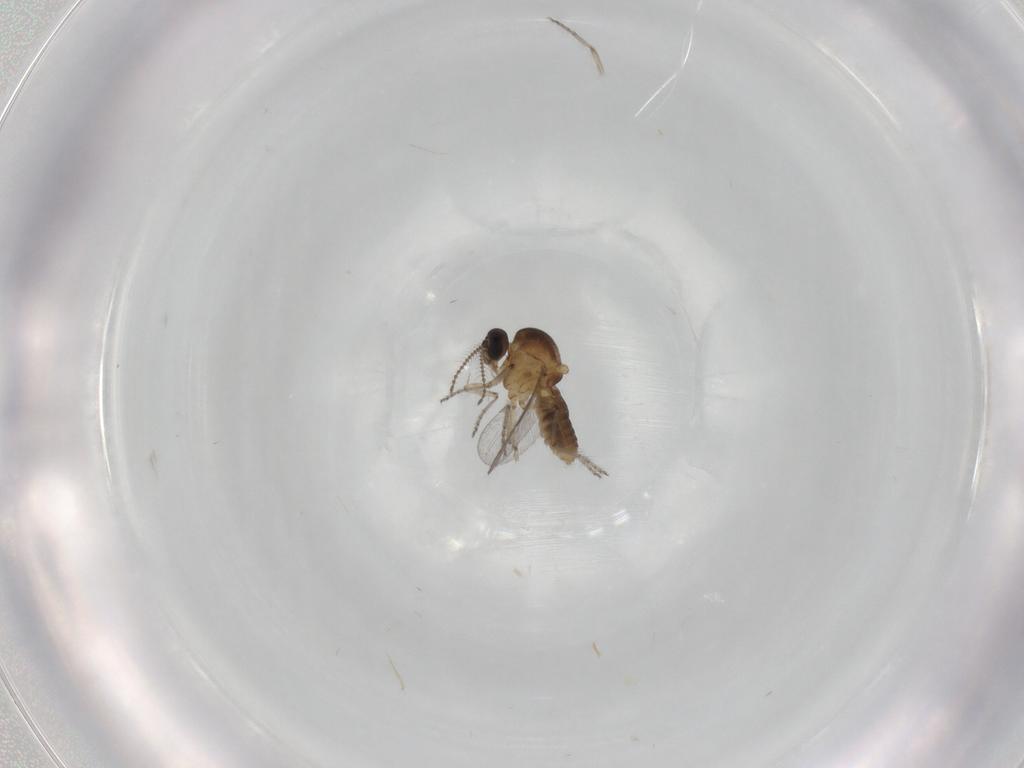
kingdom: Animalia
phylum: Arthropoda
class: Insecta
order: Diptera
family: Ceratopogonidae
